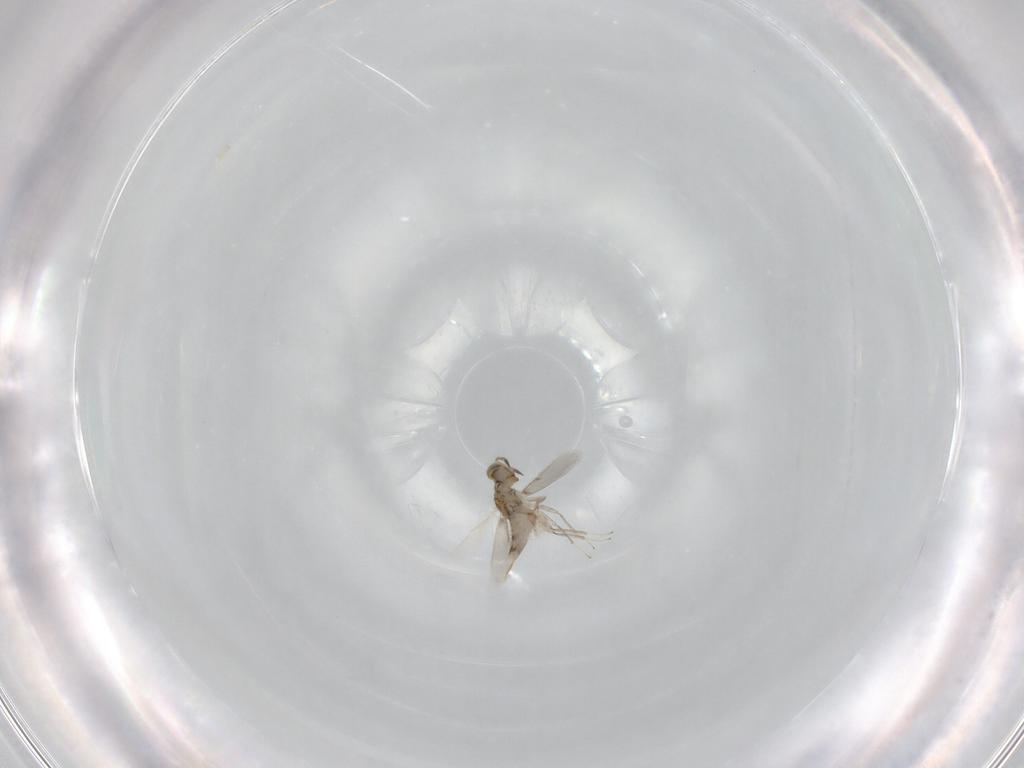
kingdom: Animalia
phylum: Arthropoda
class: Insecta
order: Hymenoptera
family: Aphelinidae
